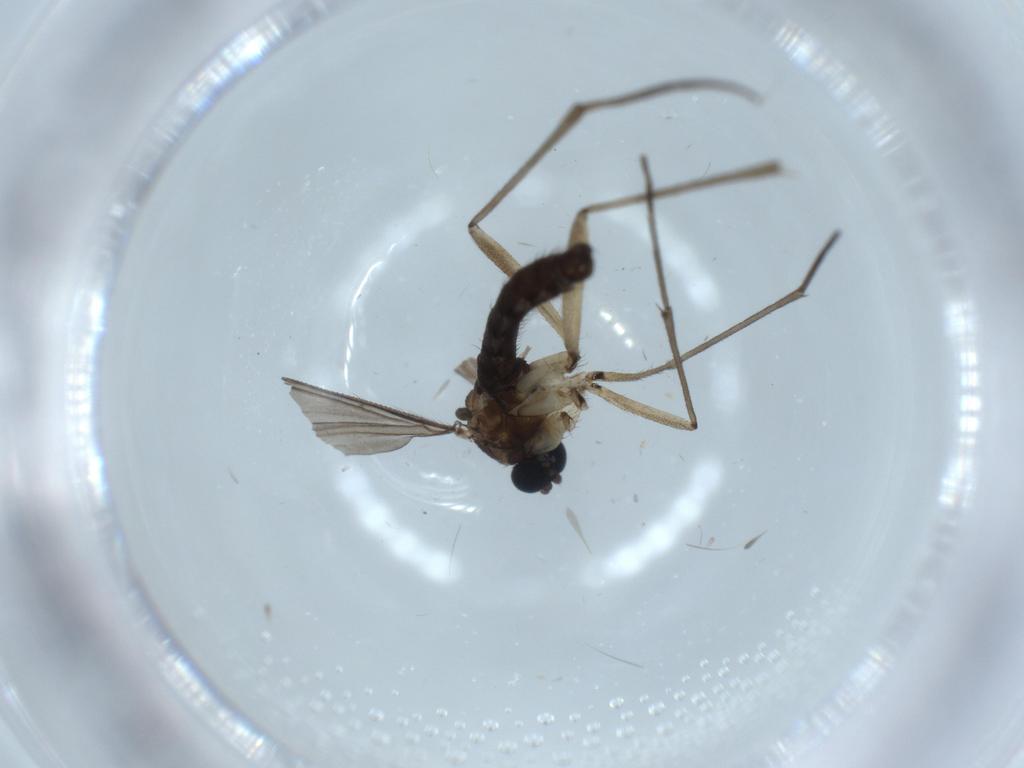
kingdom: Animalia
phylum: Arthropoda
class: Insecta
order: Diptera
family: Sciaridae
